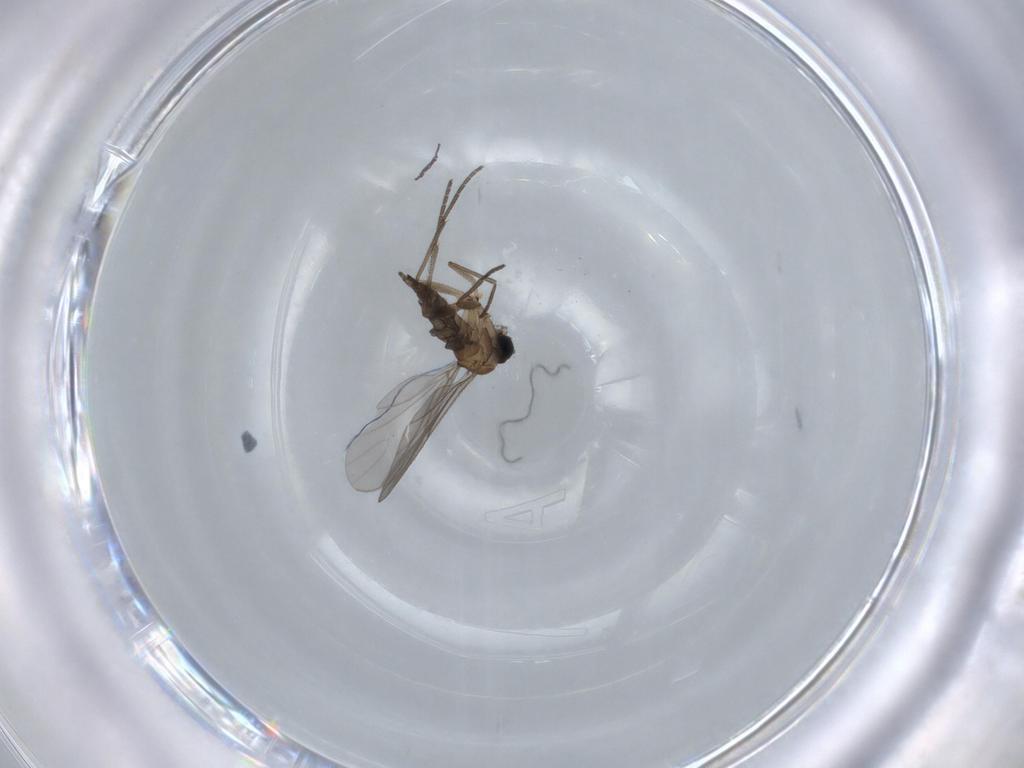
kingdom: Animalia
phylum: Arthropoda
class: Insecta
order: Diptera
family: Sciaridae
